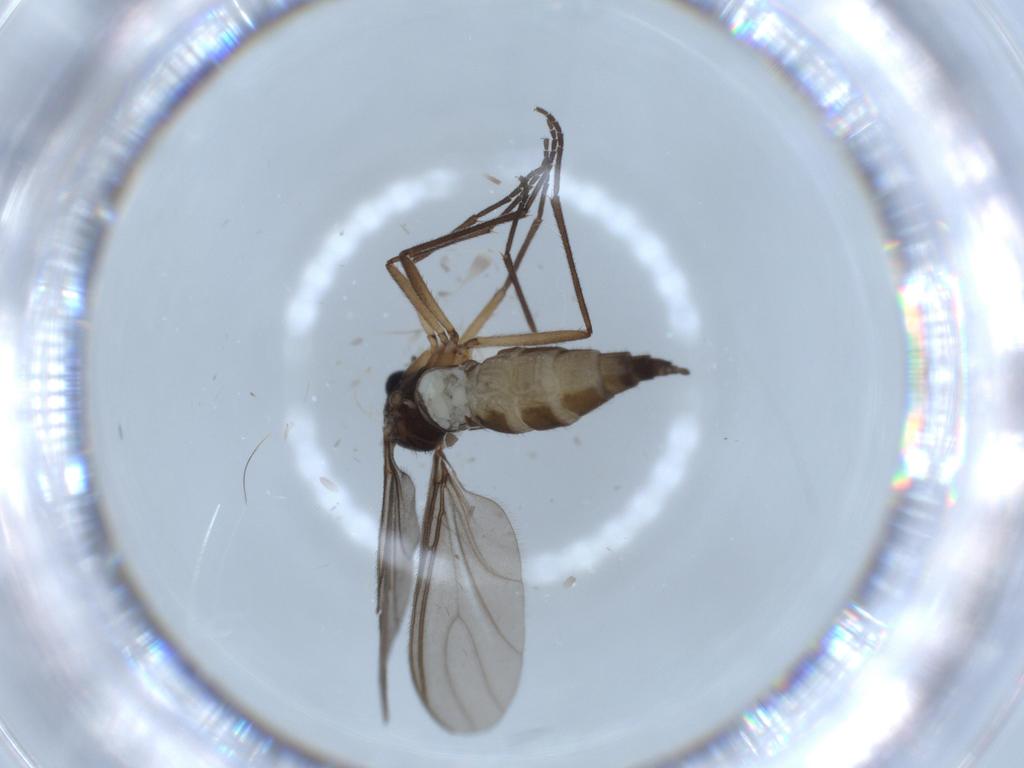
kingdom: Animalia
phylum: Arthropoda
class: Insecta
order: Diptera
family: Sciaridae
